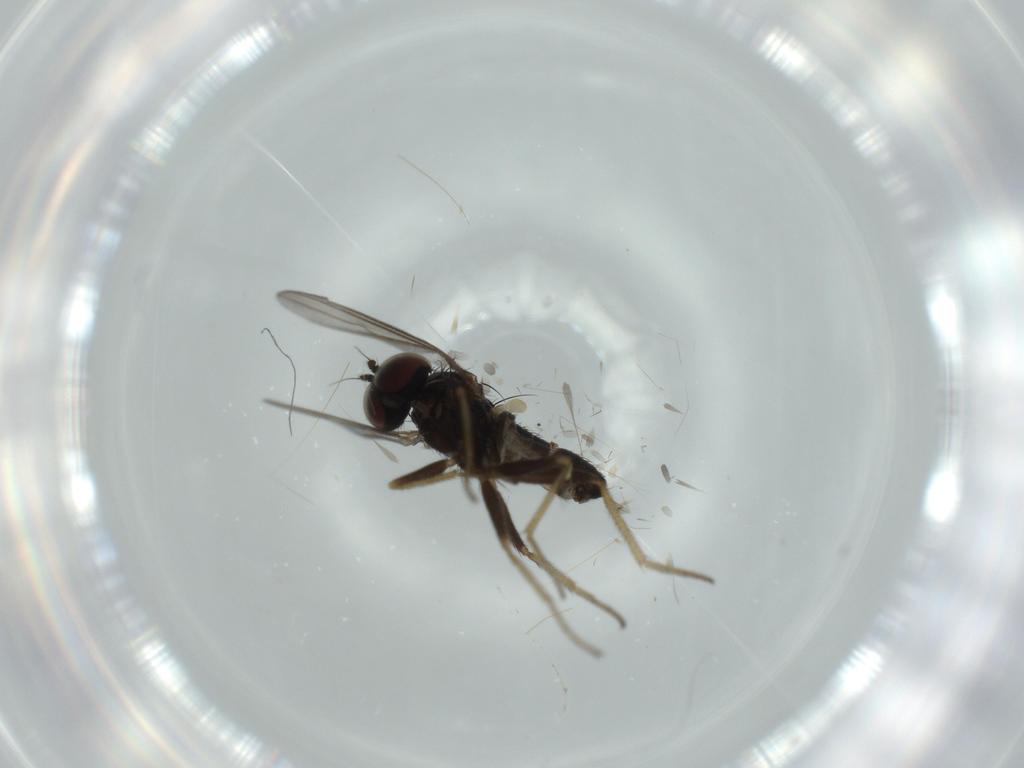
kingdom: Animalia
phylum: Arthropoda
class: Insecta
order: Diptera
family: Dolichopodidae
